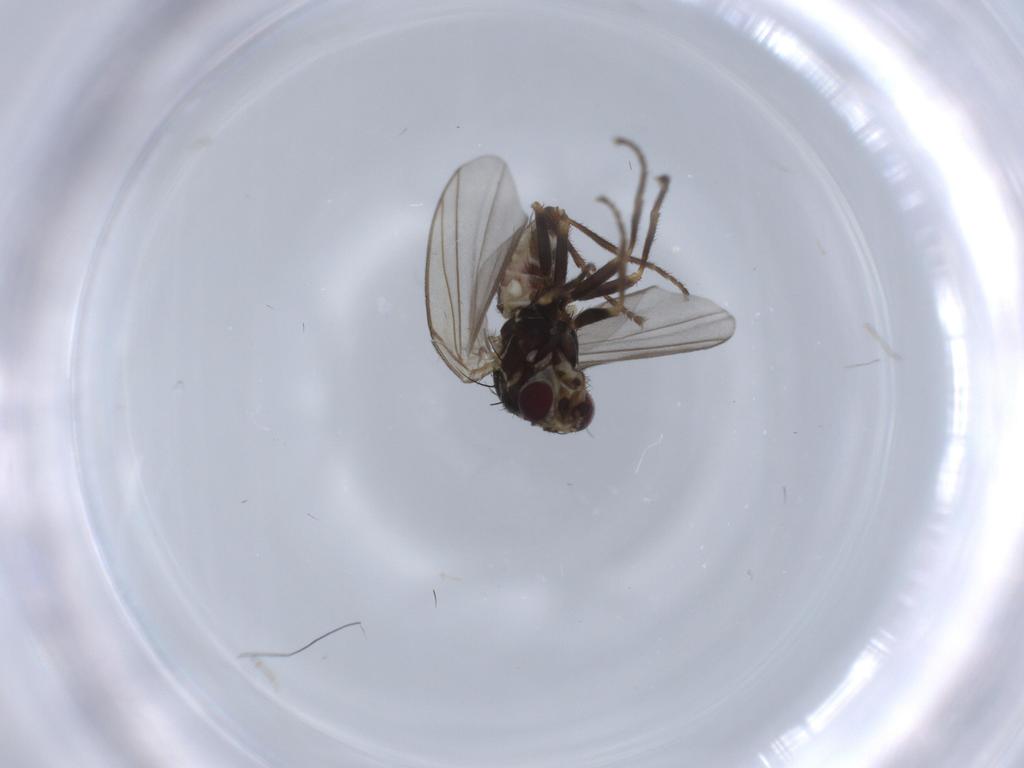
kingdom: Animalia
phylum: Arthropoda
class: Insecta
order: Diptera
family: Mycetophilidae
